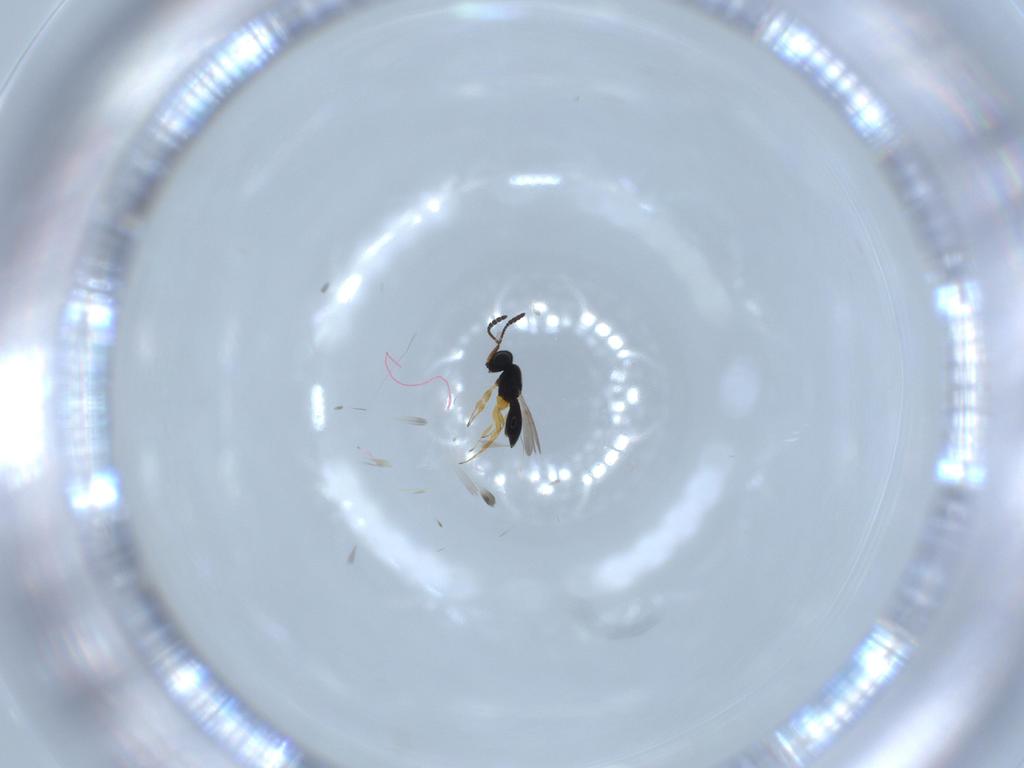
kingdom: Animalia
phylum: Arthropoda
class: Insecta
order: Hymenoptera
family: Scelionidae
